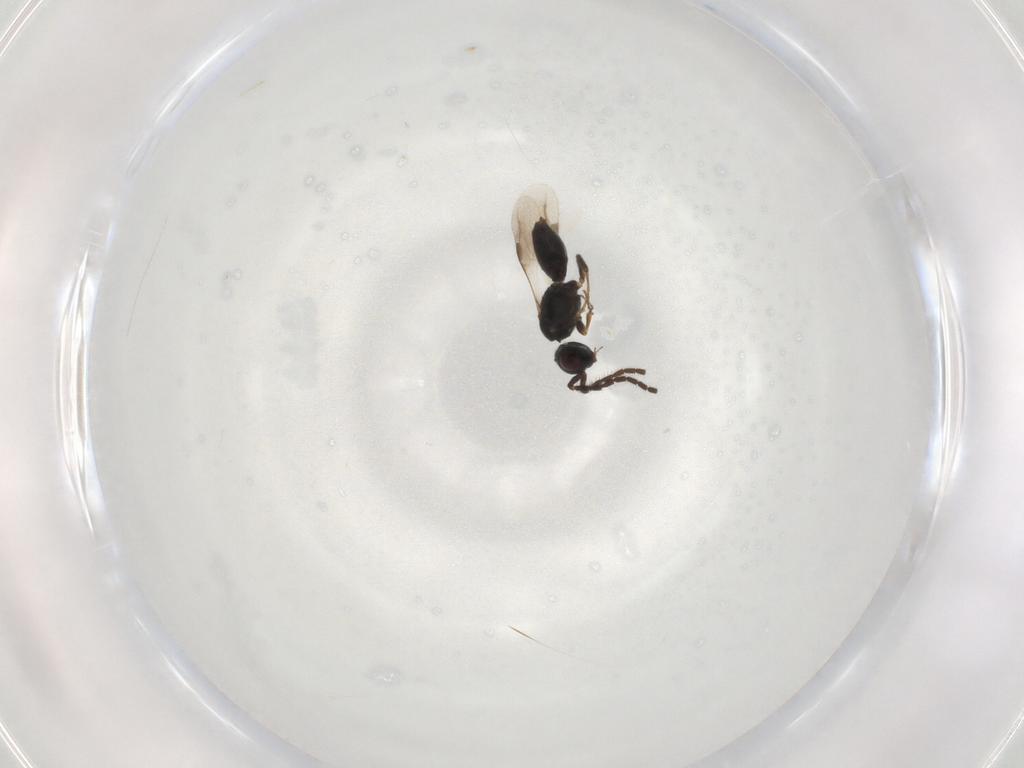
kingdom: Animalia
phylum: Arthropoda
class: Insecta
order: Hymenoptera
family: Megaspilidae
